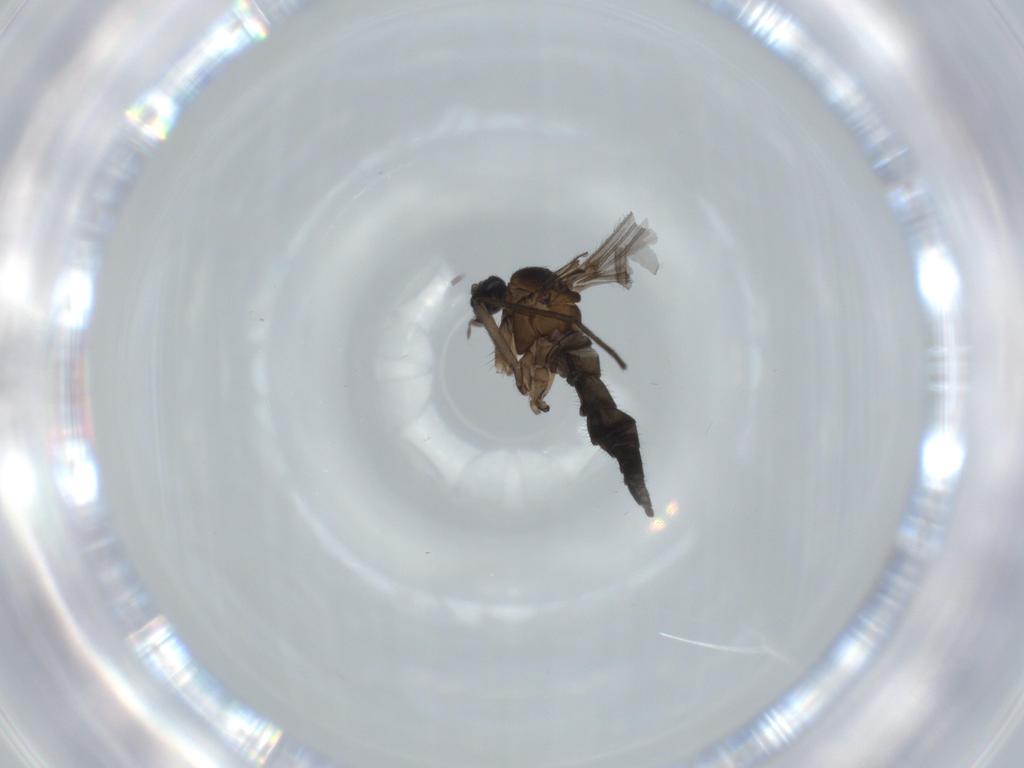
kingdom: Animalia
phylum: Arthropoda
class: Insecta
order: Diptera
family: Sciaridae
